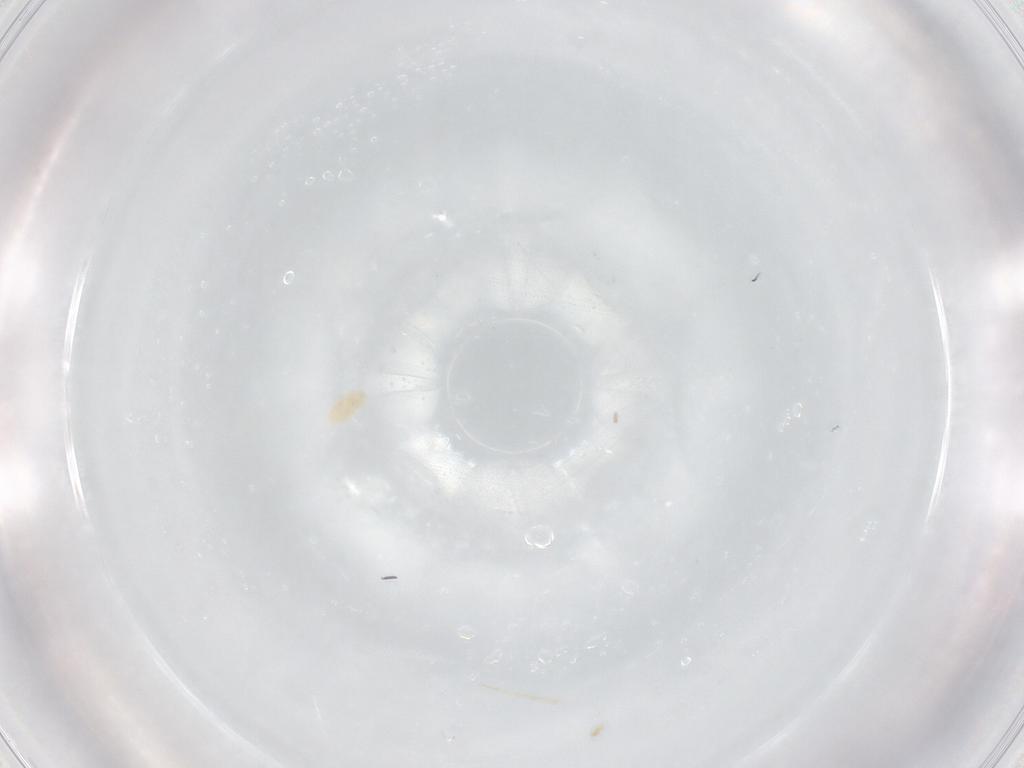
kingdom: Animalia
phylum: Arthropoda
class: Arachnida
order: Trombidiformes
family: Eupodidae
